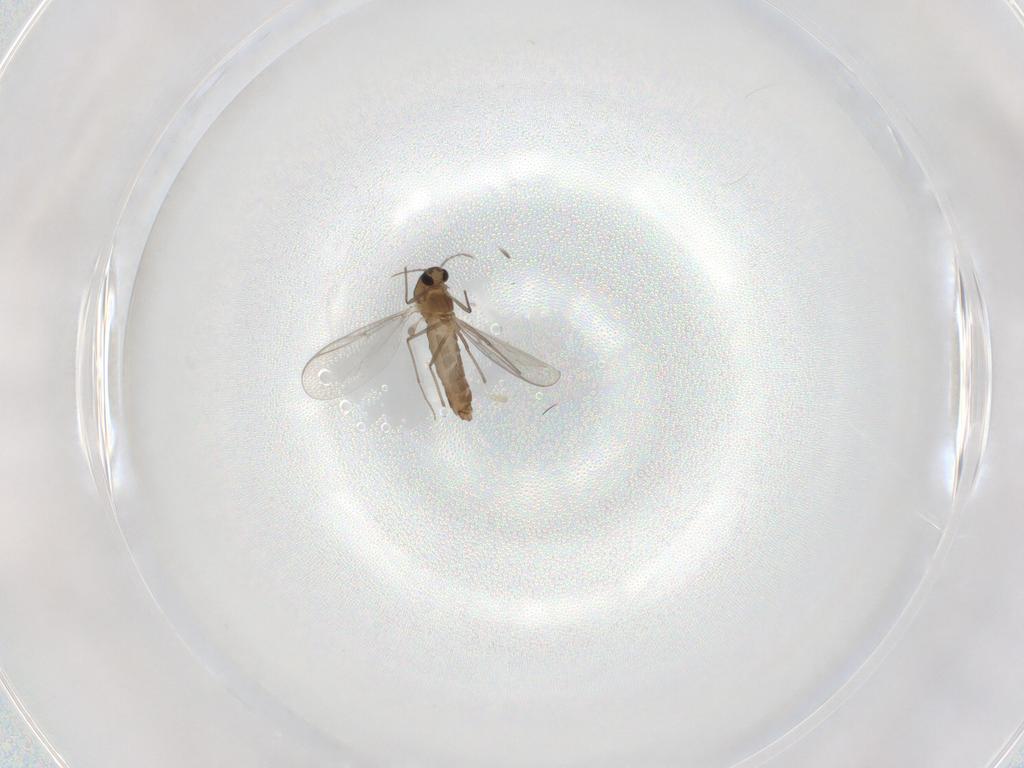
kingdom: Animalia
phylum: Arthropoda
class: Insecta
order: Diptera
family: Chironomidae
